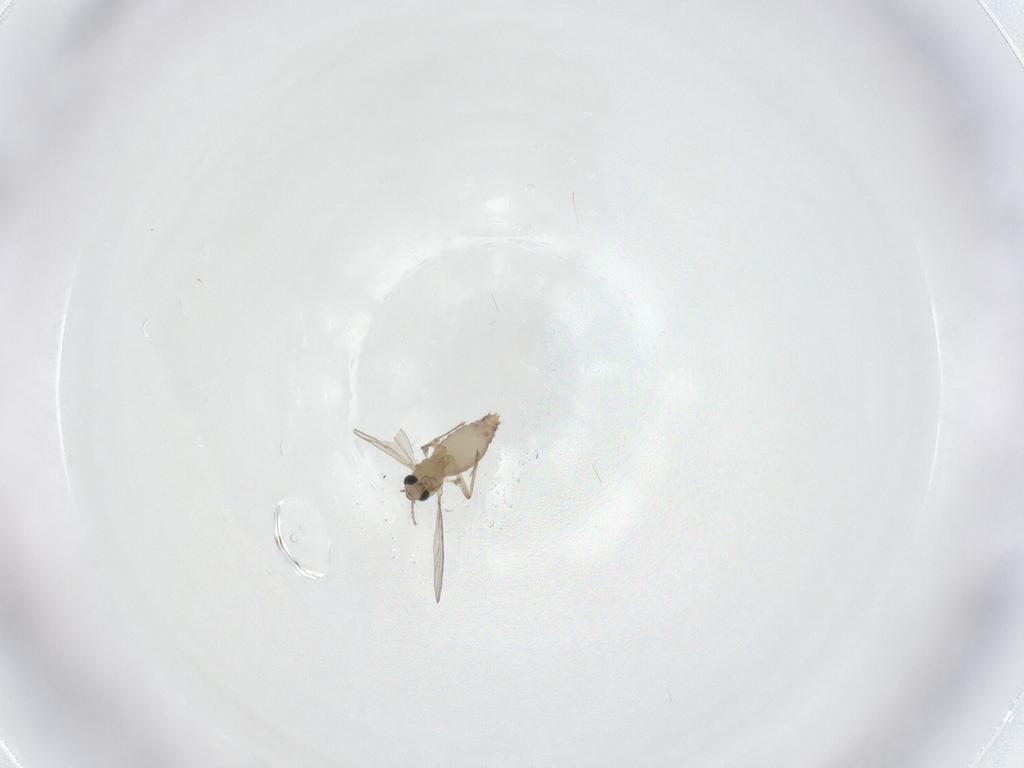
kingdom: Animalia
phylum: Arthropoda
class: Insecta
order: Diptera
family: Chironomidae
